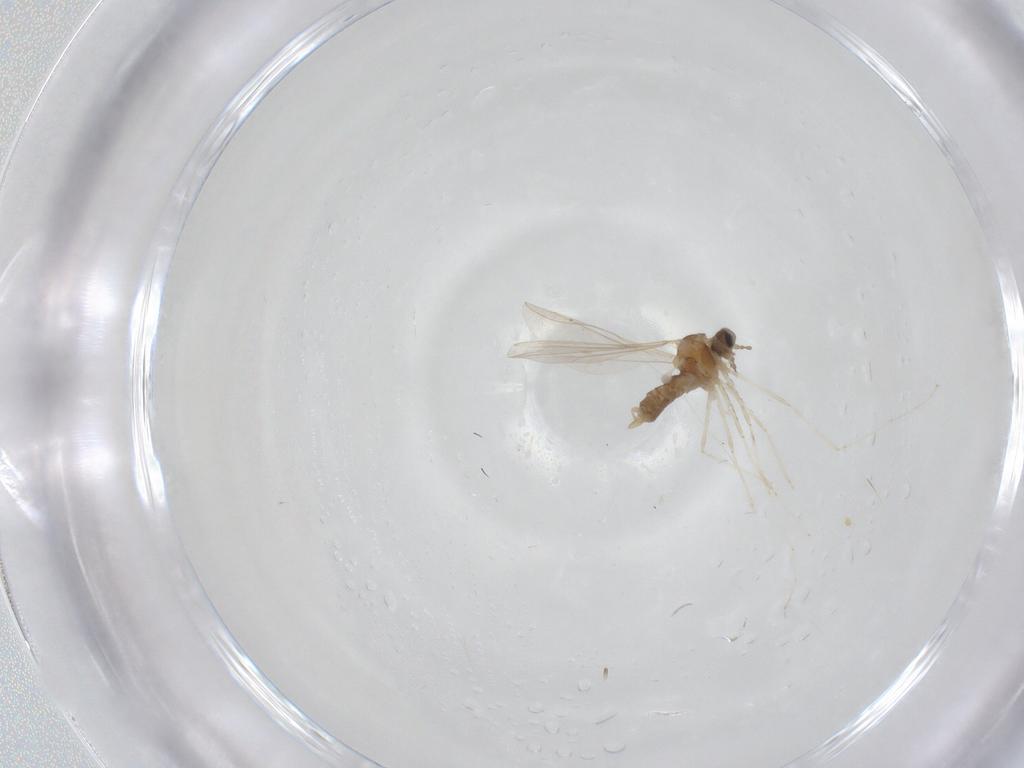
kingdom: Animalia
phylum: Arthropoda
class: Insecta
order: Diptera
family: Cecidomyiidae
